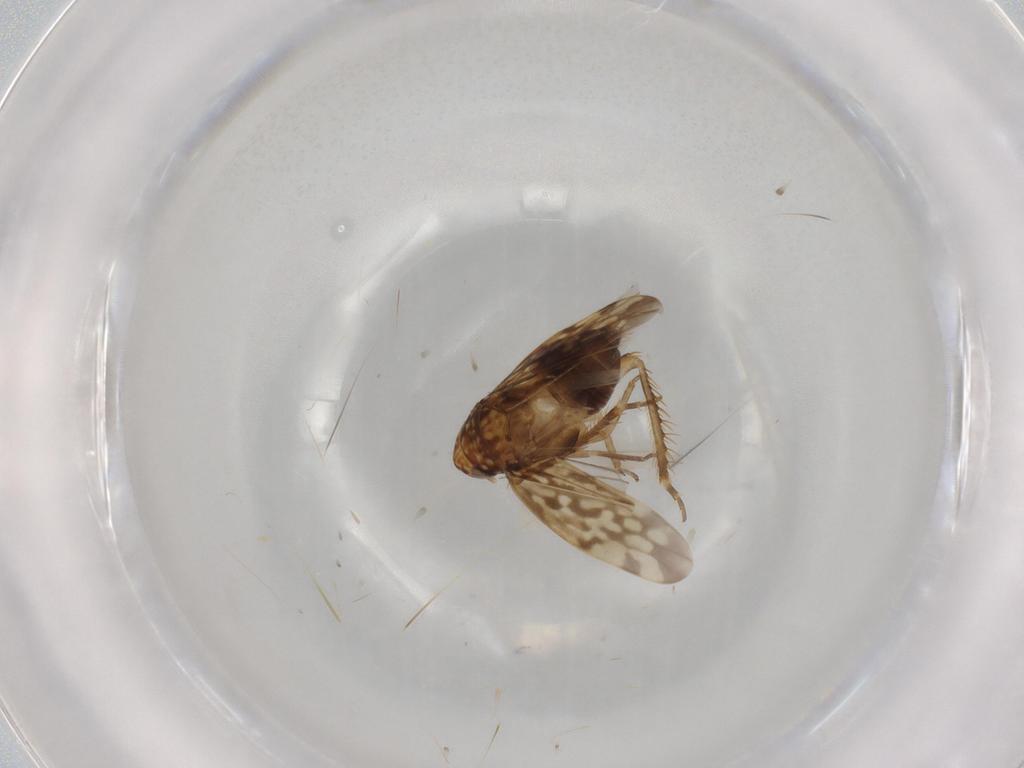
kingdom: Animalia
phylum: Arthropoda
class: Insecta
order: Hemiptera
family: Cicadellidae
